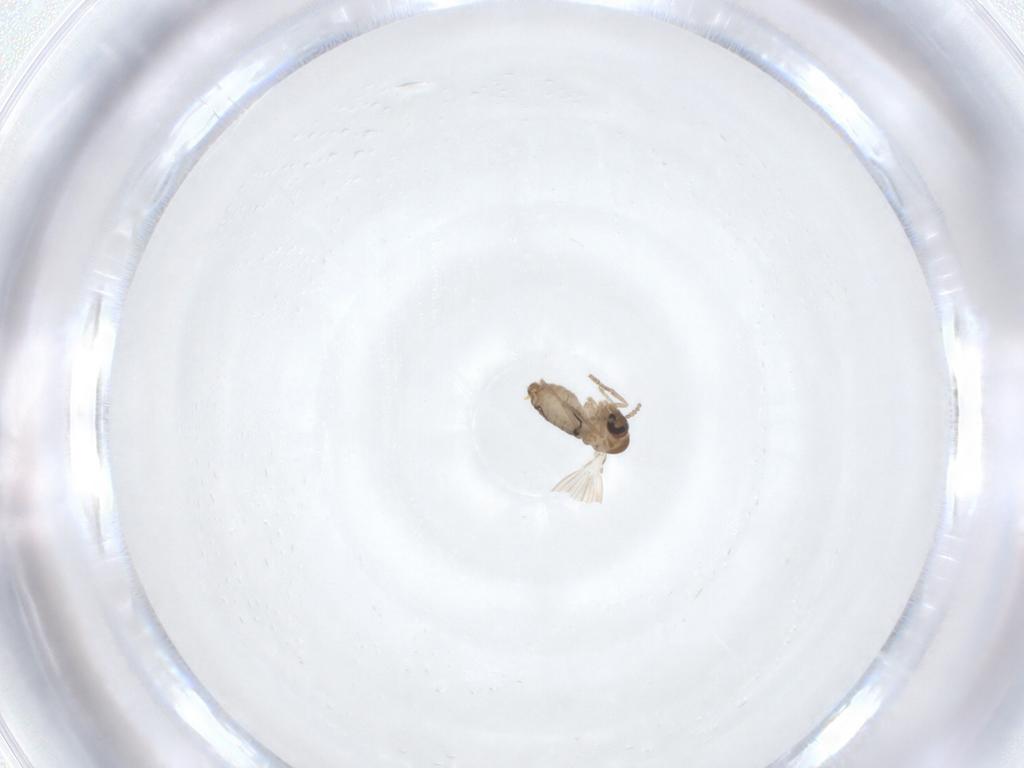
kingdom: Animalia
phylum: Arthropoda
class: Insecta
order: Diptera
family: Psychodidae
